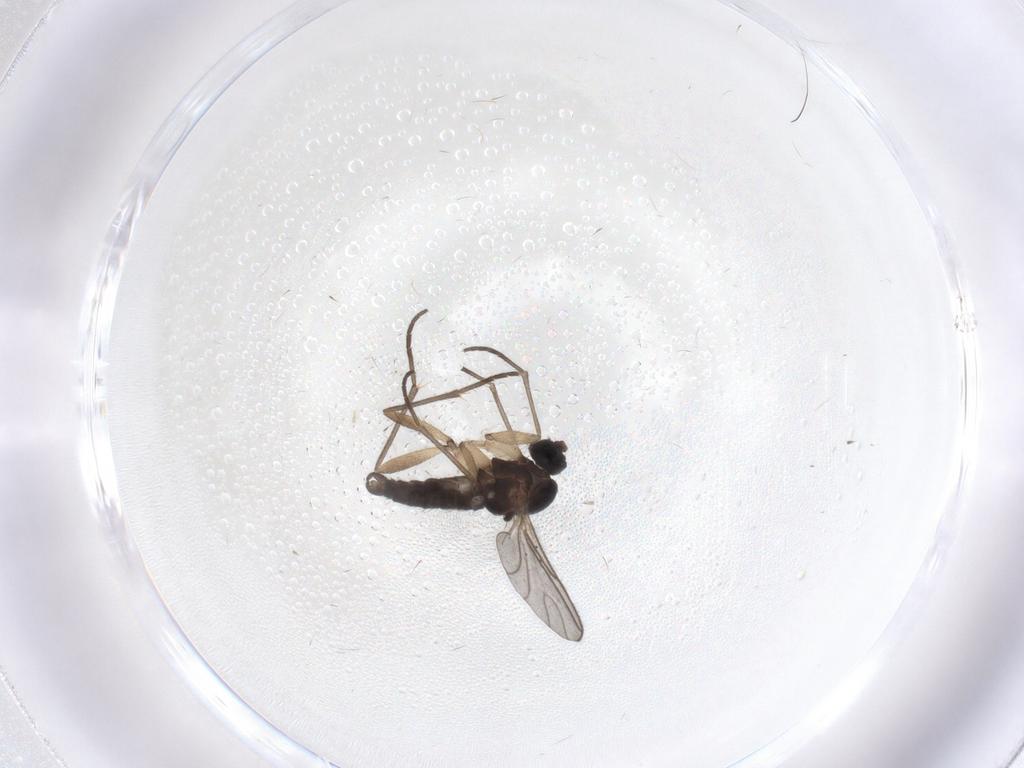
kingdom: Animalia
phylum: Arthropoda
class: Insecta
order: Diptera
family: Sciaridae
